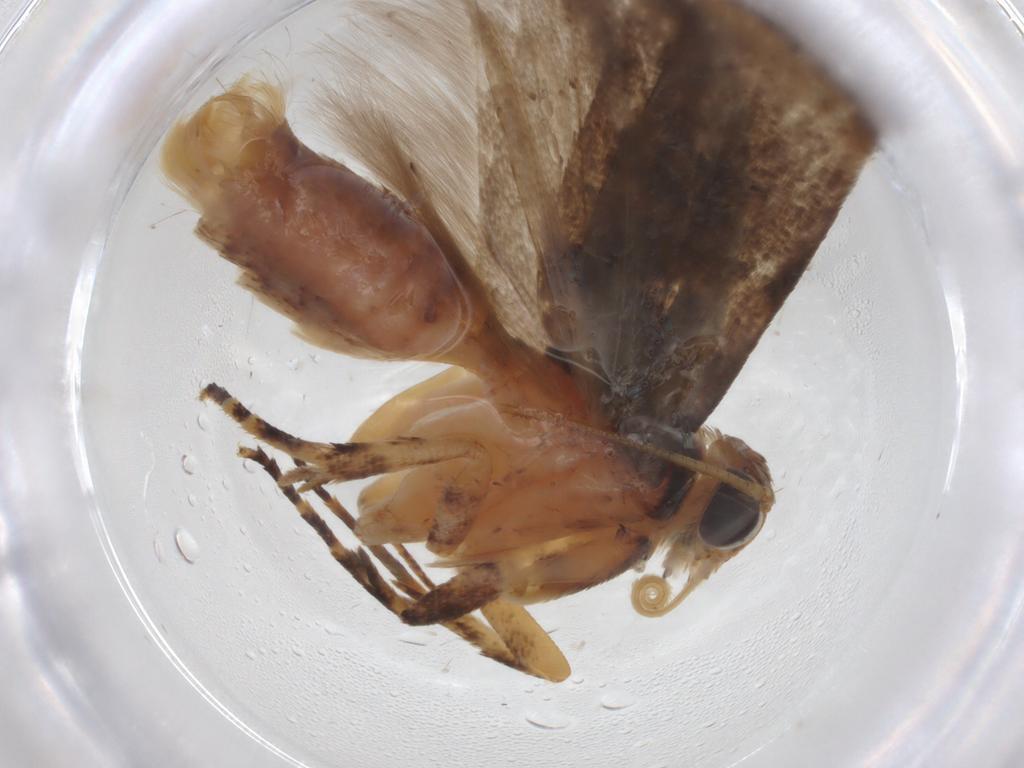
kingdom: Animalia
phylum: Arthropoda
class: Insecta
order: Lepidoptera
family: Gelechiidae
